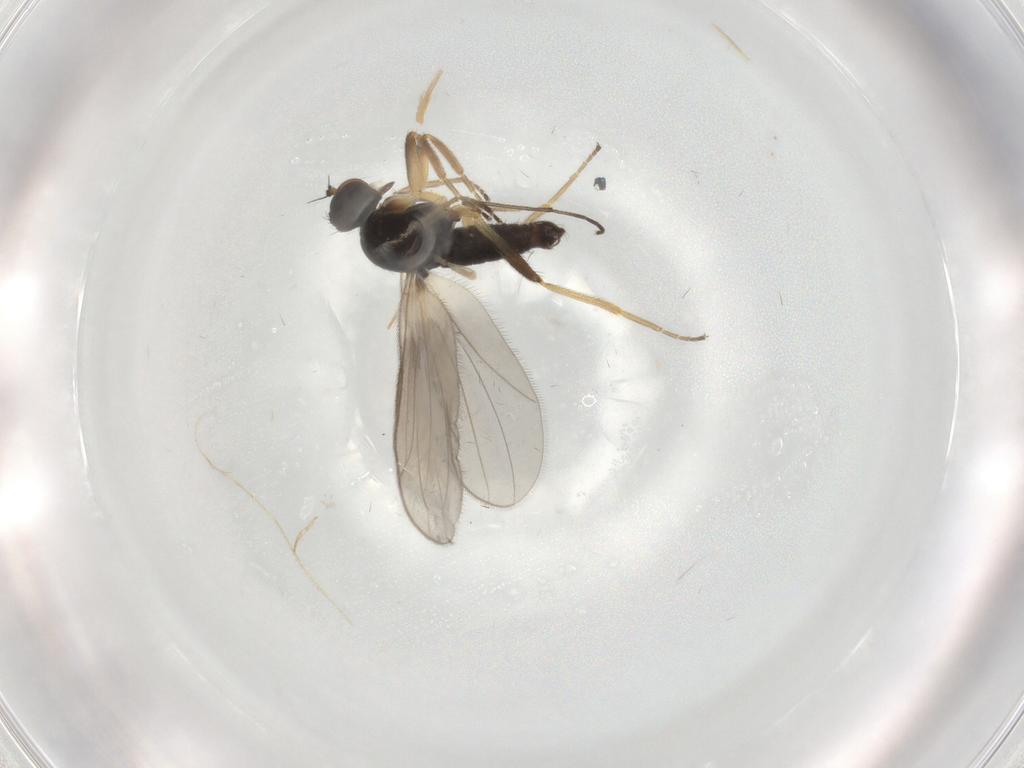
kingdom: Animalia
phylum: Arthropoda
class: Insecta
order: Diptera
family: Hybotidae
